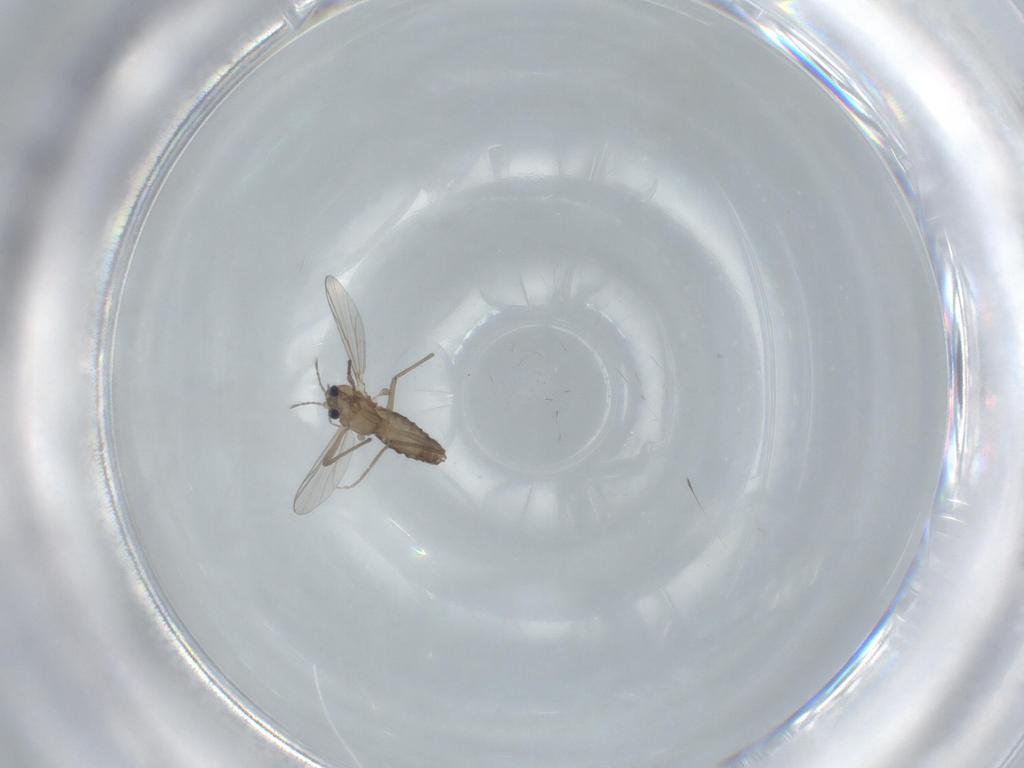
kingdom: Animalia
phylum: Arthropoda
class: Insecta
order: Diptera
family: Chironomidae
